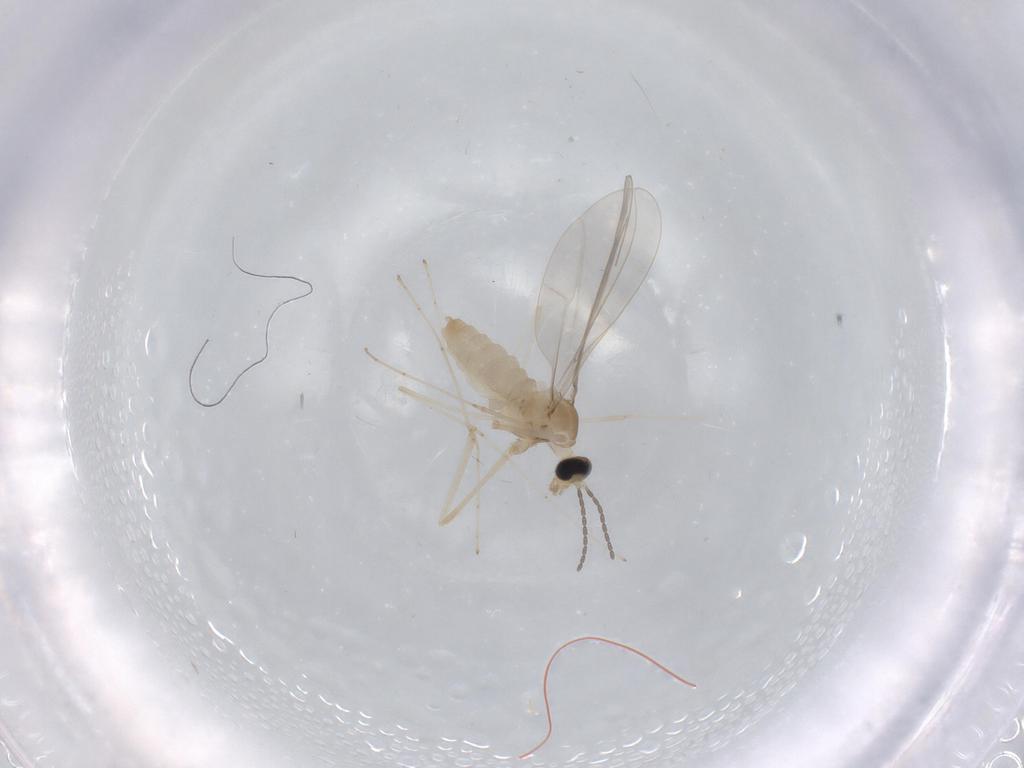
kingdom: Animalia
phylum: Arthropoda
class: Insecta
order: Diptera
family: Cecidomyiidae
